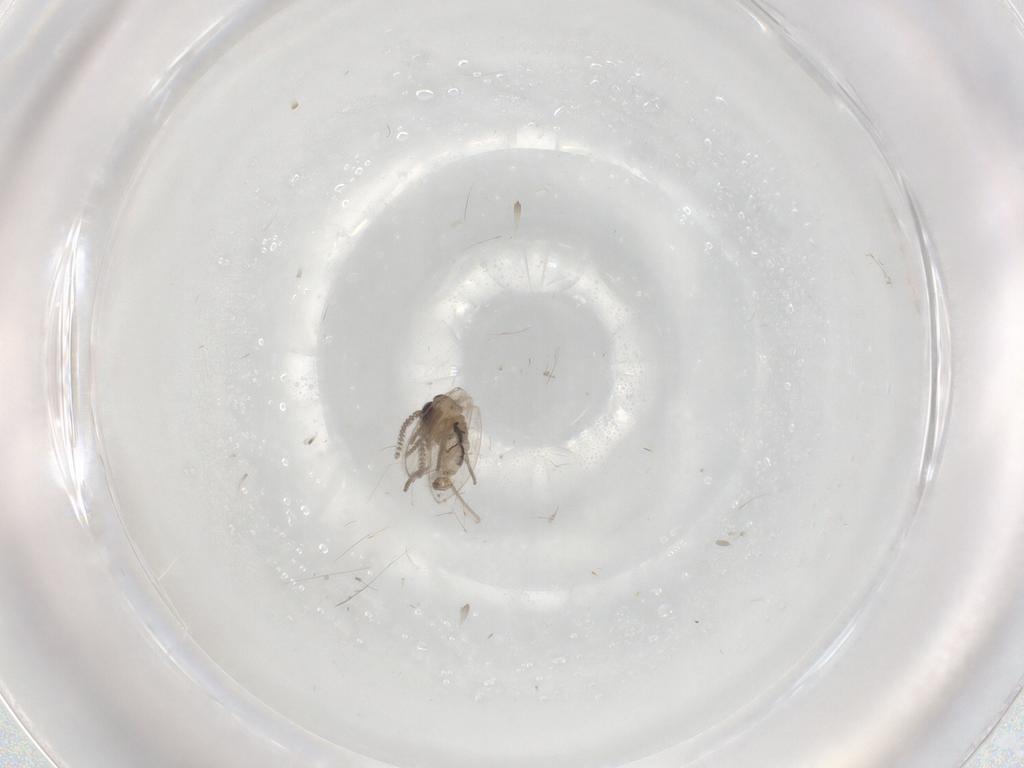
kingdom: Animalia
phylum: Arthropoda
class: Insecta
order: Diptera
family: Psychodidae
